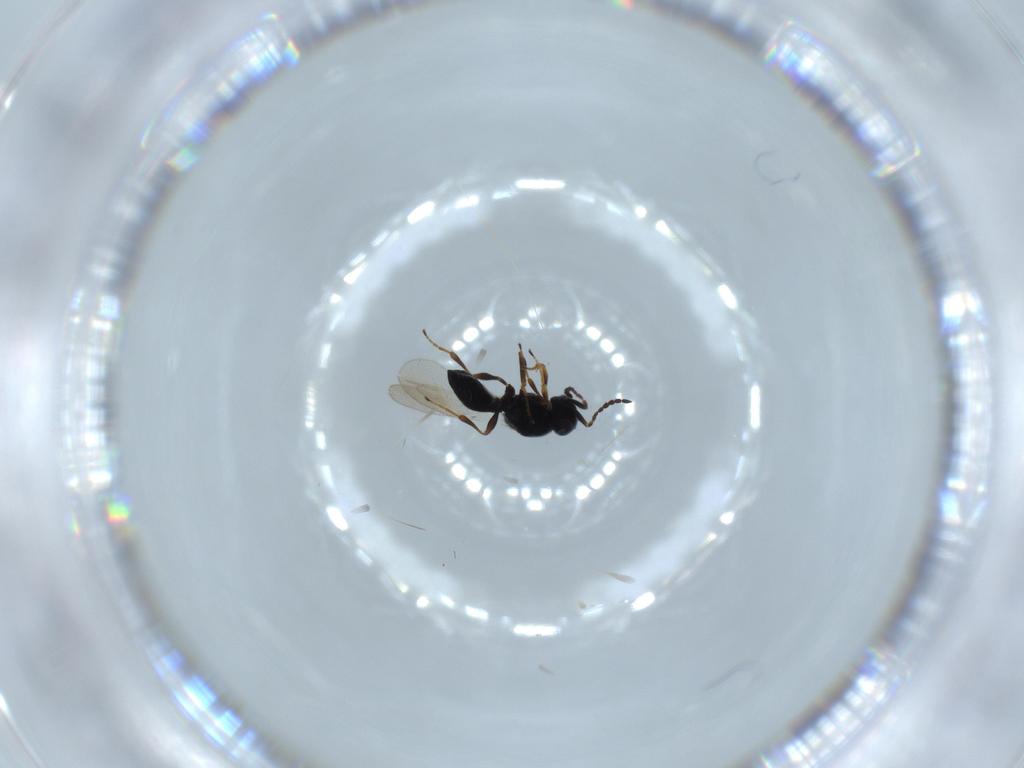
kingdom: Animalia
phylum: Arthropoda
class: Insecta
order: Hymenoptera
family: Platygastridae
